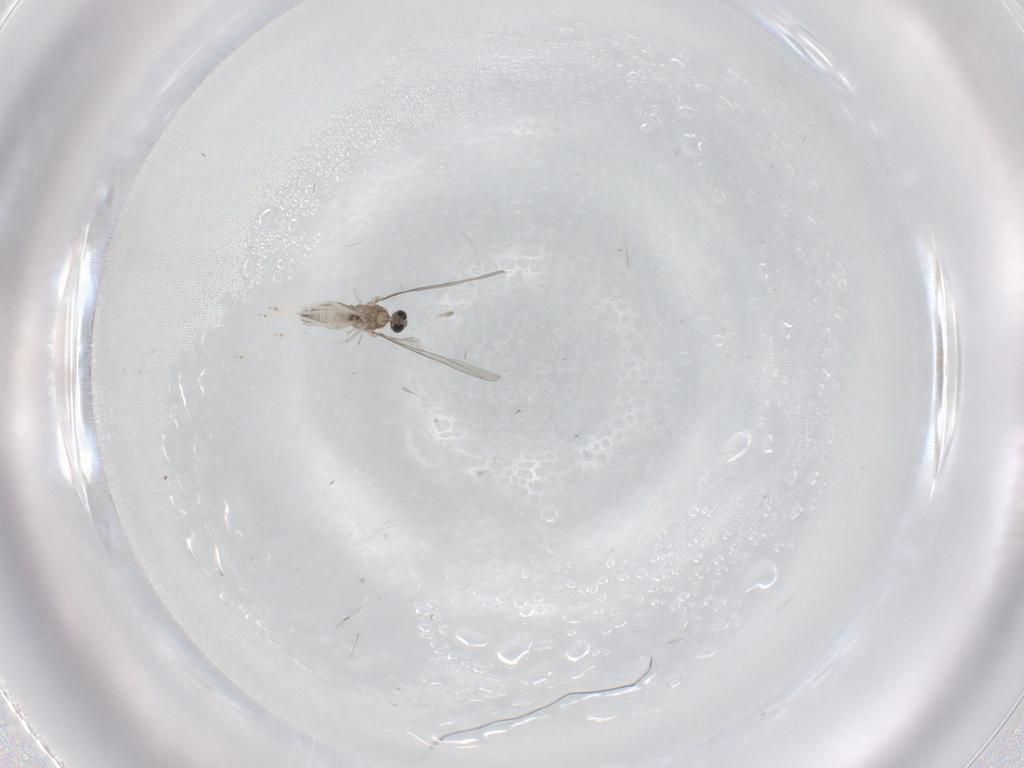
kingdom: Animalia
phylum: Arthropoda
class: Insecta
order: Diptera
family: Cecidomyiidae
